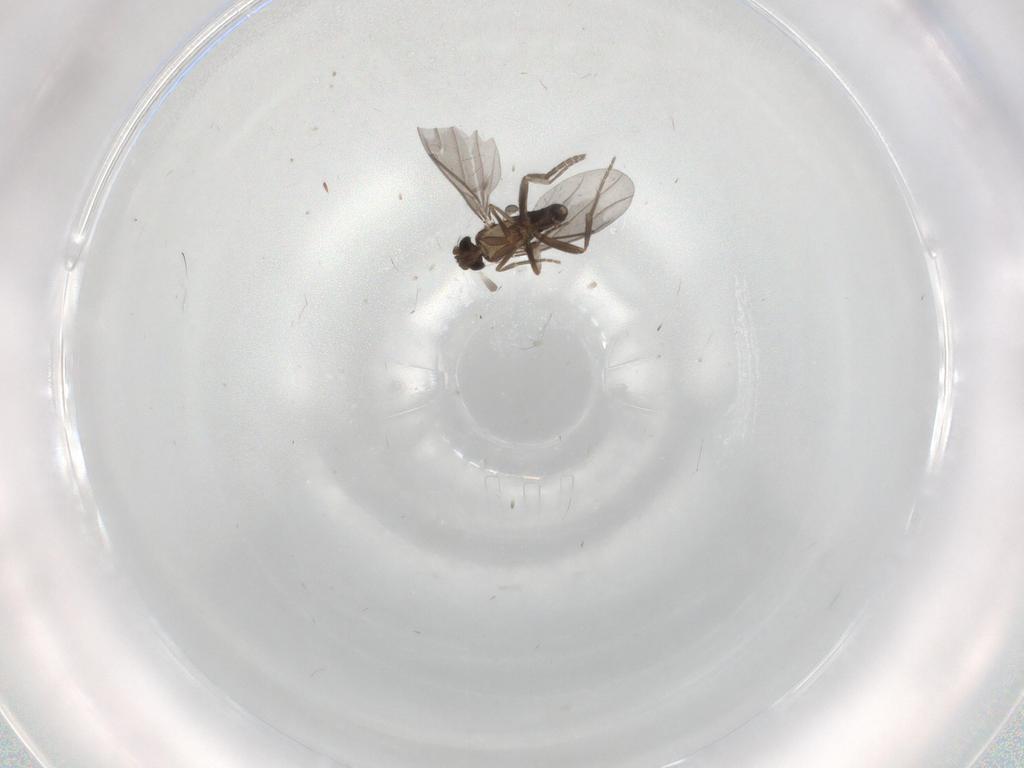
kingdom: Animalia
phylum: Arthropoda
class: Insecta
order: Diptera
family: Phoridae
